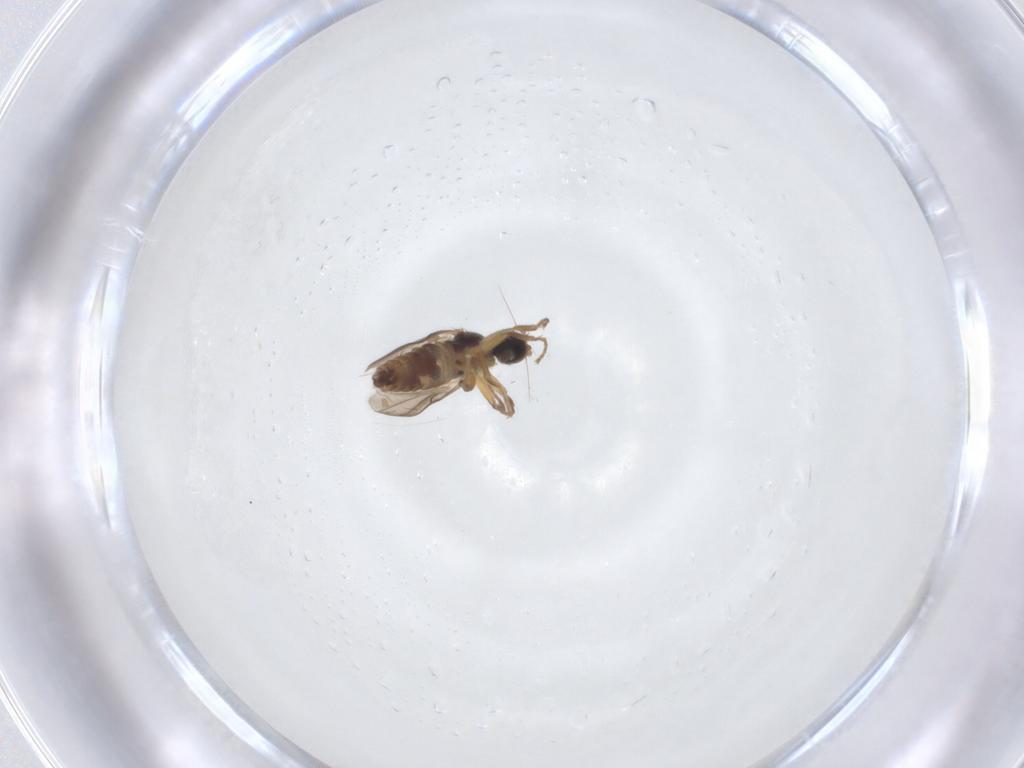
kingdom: Animalia
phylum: Arthropoda
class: Insecta
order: Diptera
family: Hybotidae
